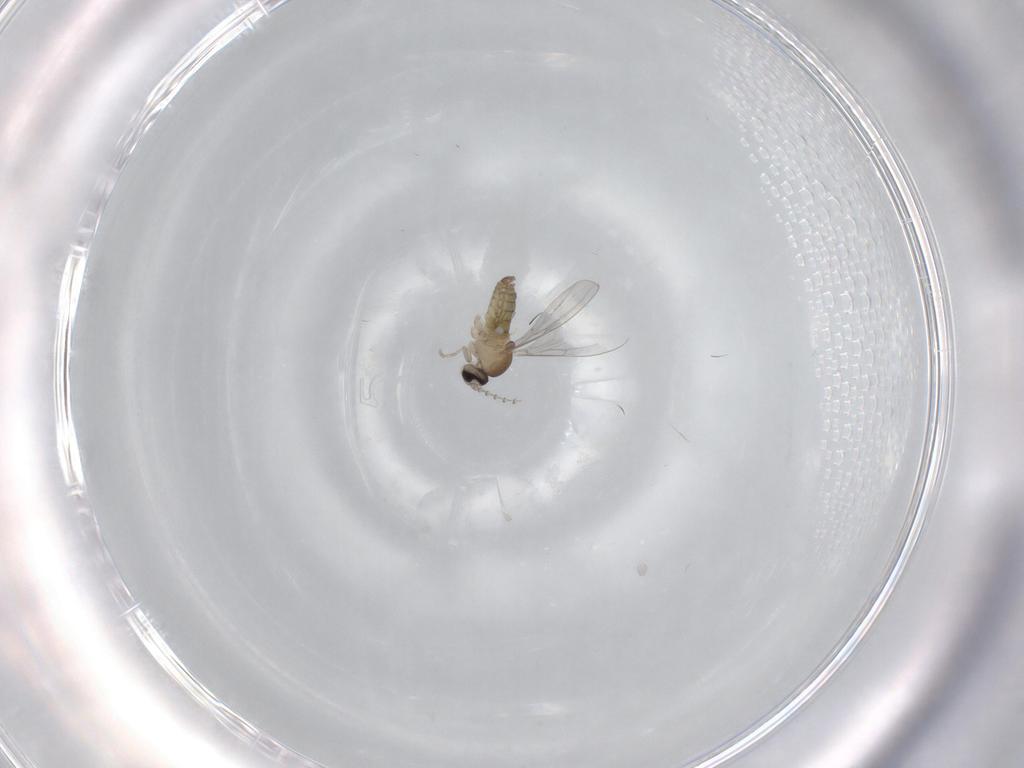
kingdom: Animalia
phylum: Arthropoda
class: Insecta
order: Diptera
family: Cecidomyiidae
